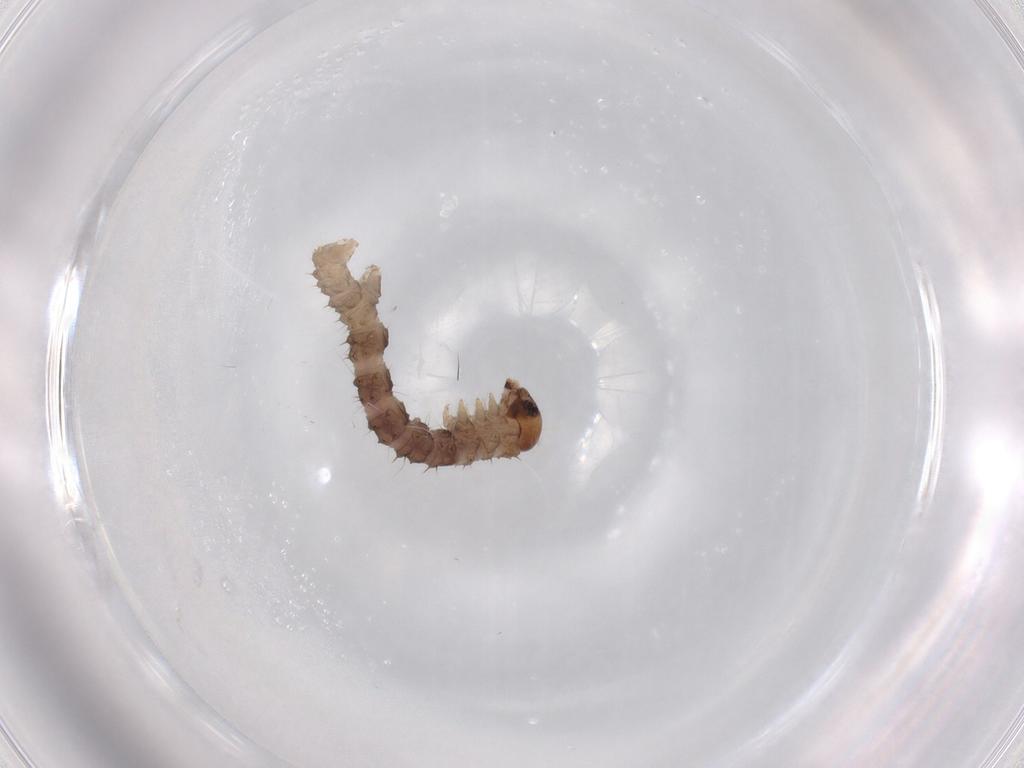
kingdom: Animalia
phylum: Arthropoda
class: Insecta
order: Lepidoptera
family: Geometridae
